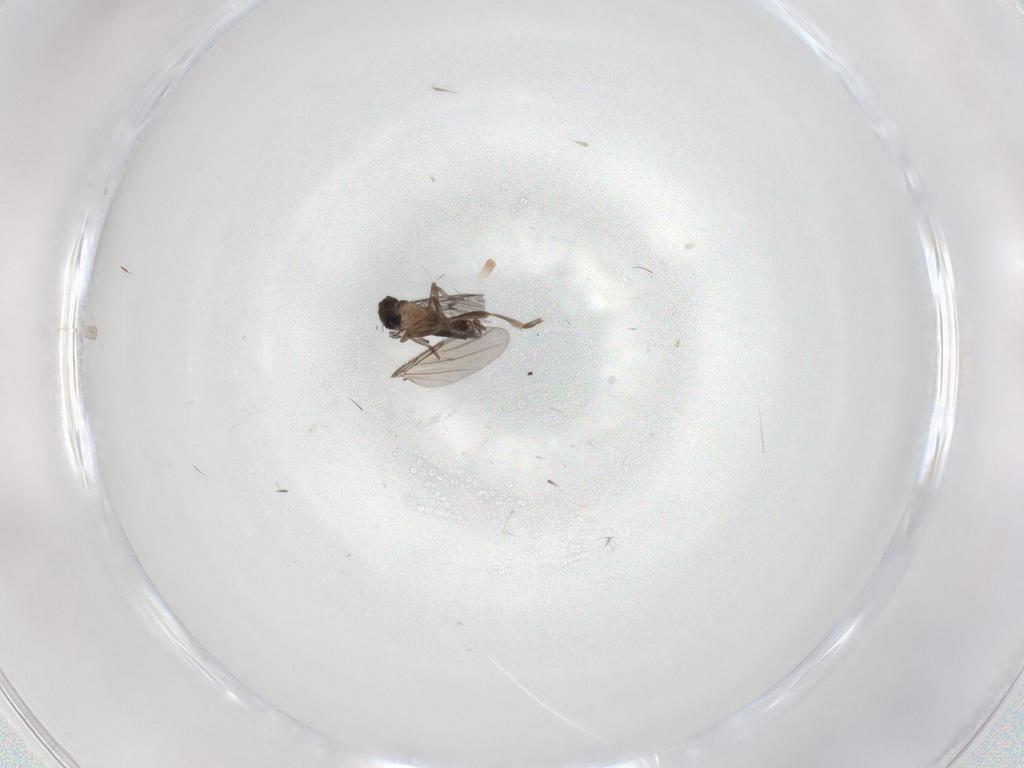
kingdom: Animalia
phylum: Arthropoda
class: Insecta
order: Diptera
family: Phoridae
